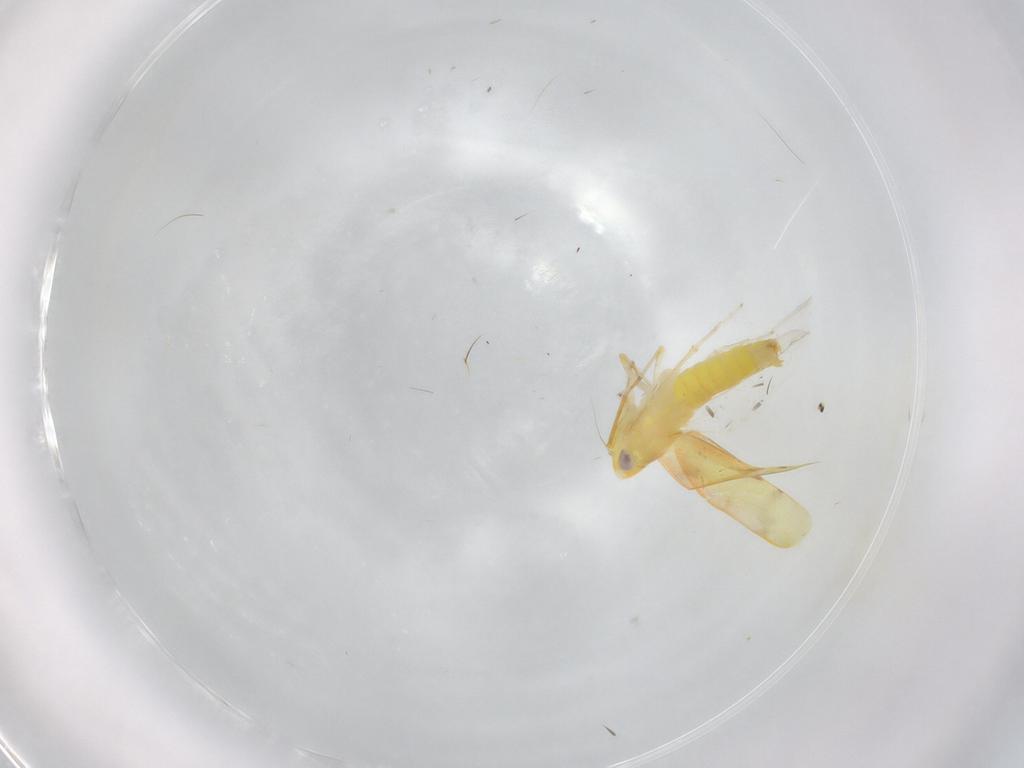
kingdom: Animalia
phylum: Arthropoda
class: Insecta
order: Hemiptera
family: Cicadellidae
